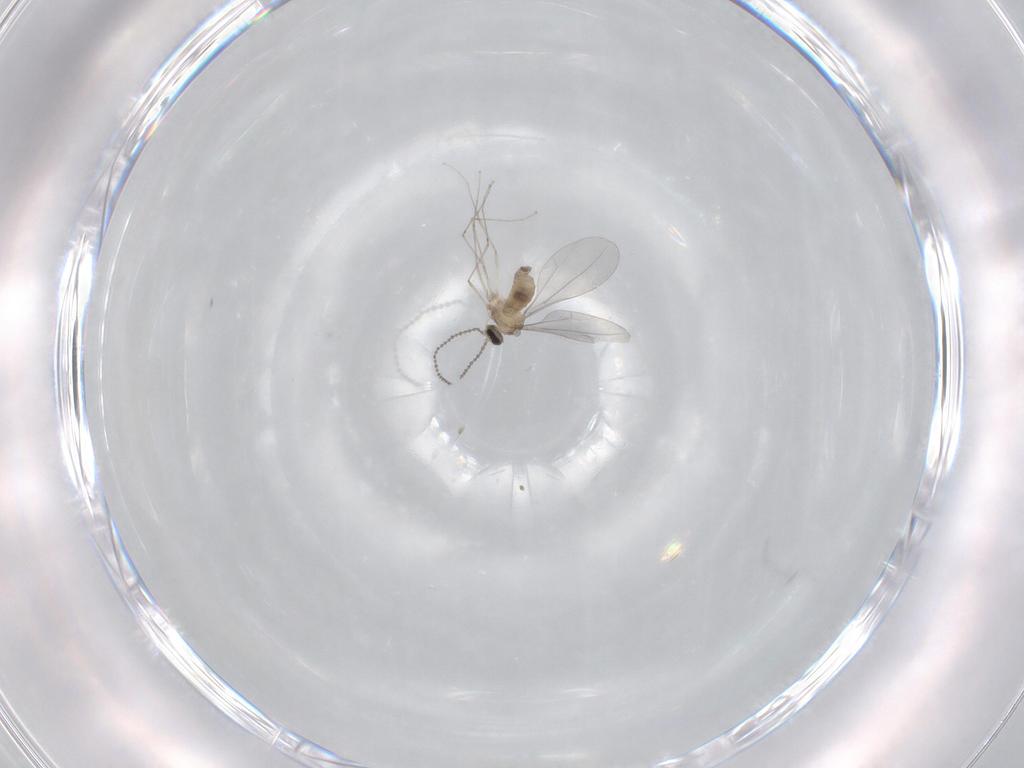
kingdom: Animalia
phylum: Arthropoda
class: Insecta
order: Diptera
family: Cecidomyiidae
